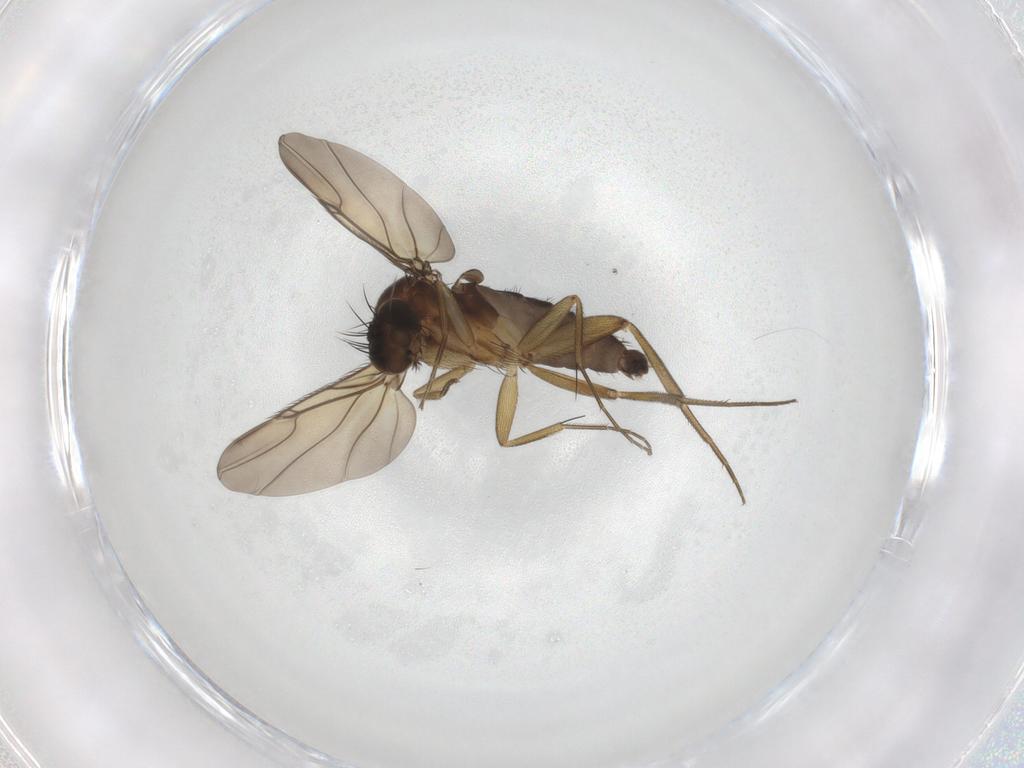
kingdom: Animalia
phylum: Arthropoda
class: Insecta
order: Diptera
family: Phoridae
